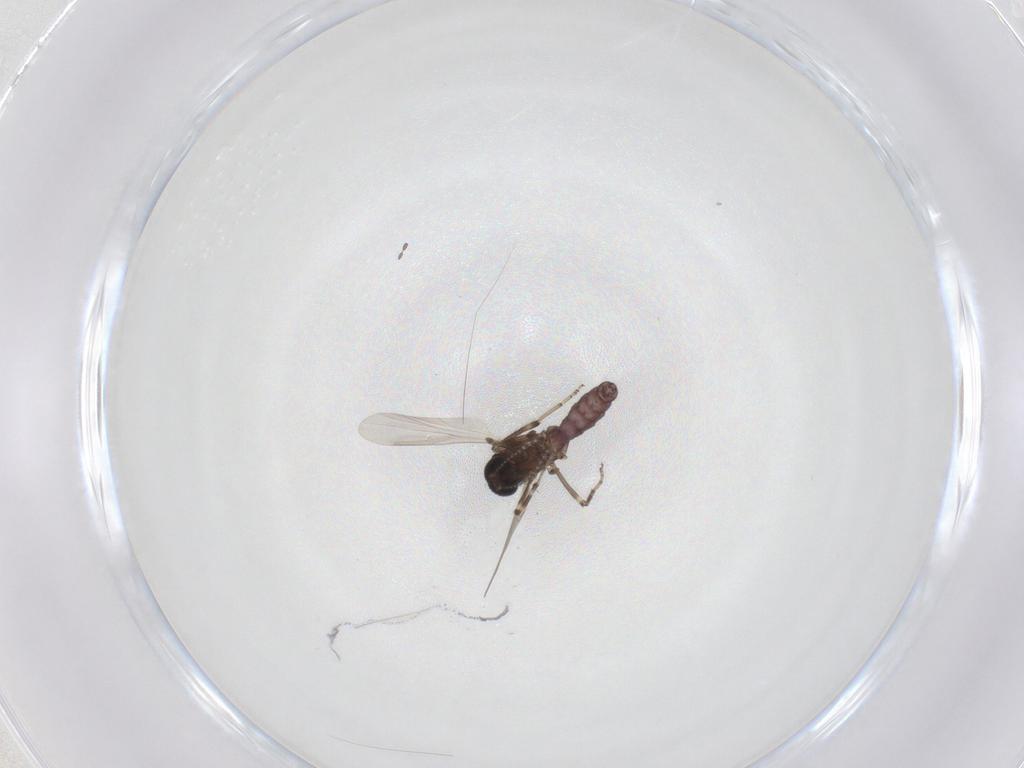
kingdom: Animalia
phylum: Arthropoda
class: Insecta
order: Diptera
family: Ceratopogonidae
